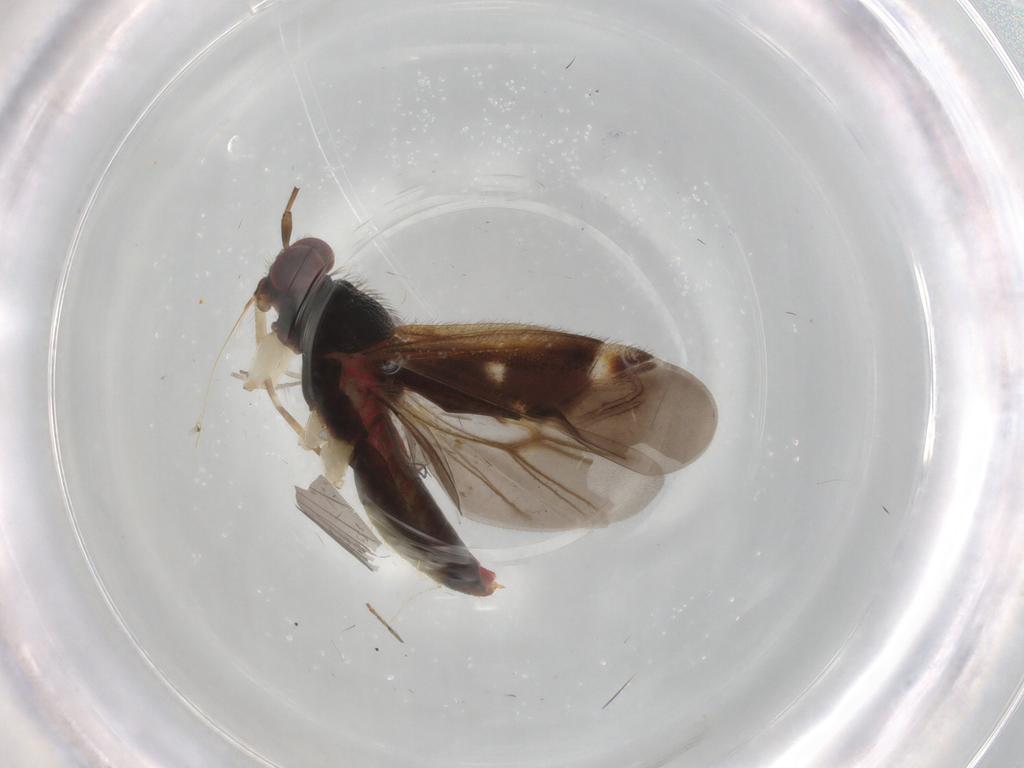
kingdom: Animalia
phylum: Arthropoda
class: Insecta
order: Hemiptera
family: Miridae
